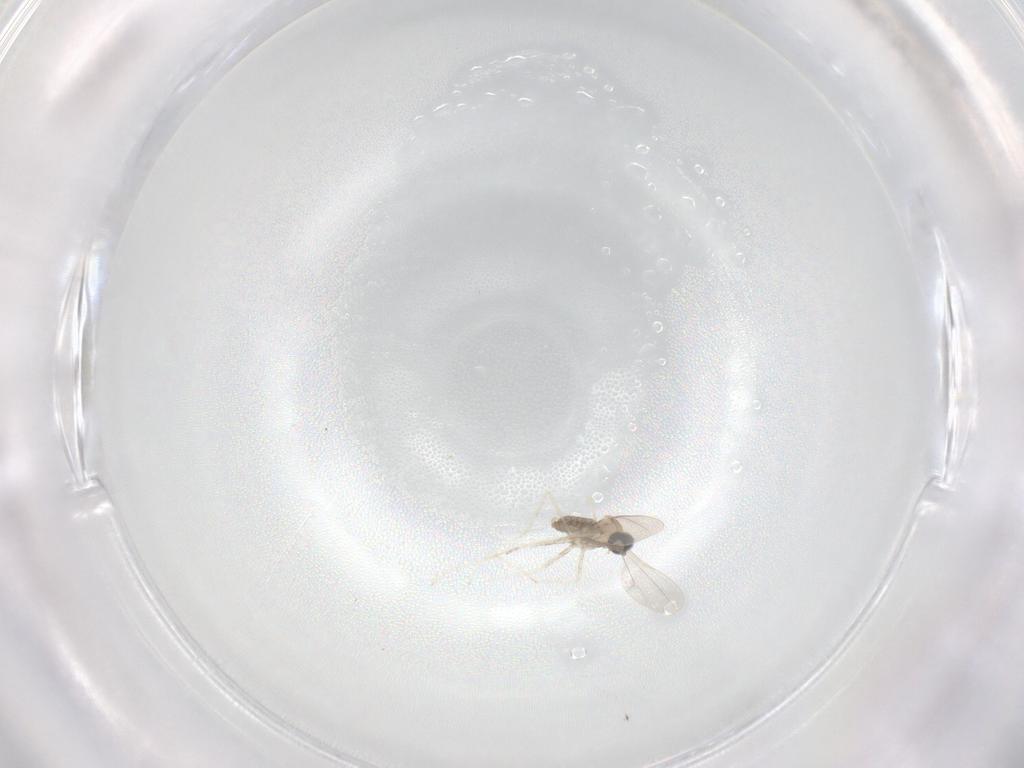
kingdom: Animalia
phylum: Arthropoda
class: Insecta
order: Diptera
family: Cecidomyiidae
